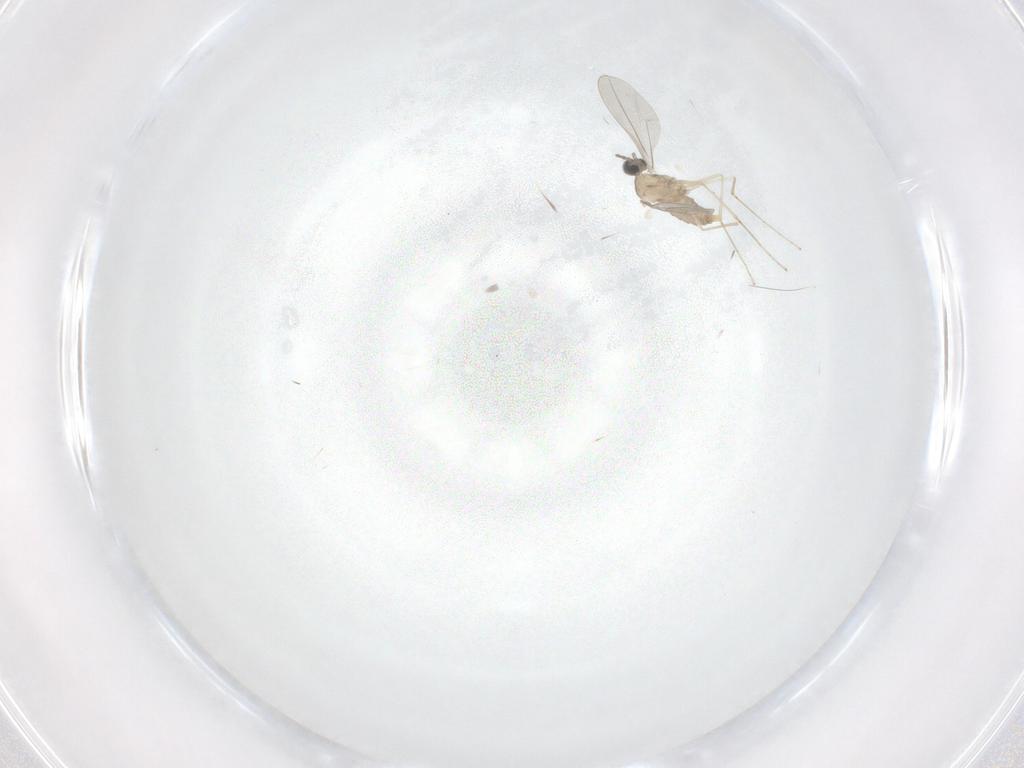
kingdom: Animalia
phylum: Arthropoda
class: Insecta
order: Diptera
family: Cecidomyiidae
